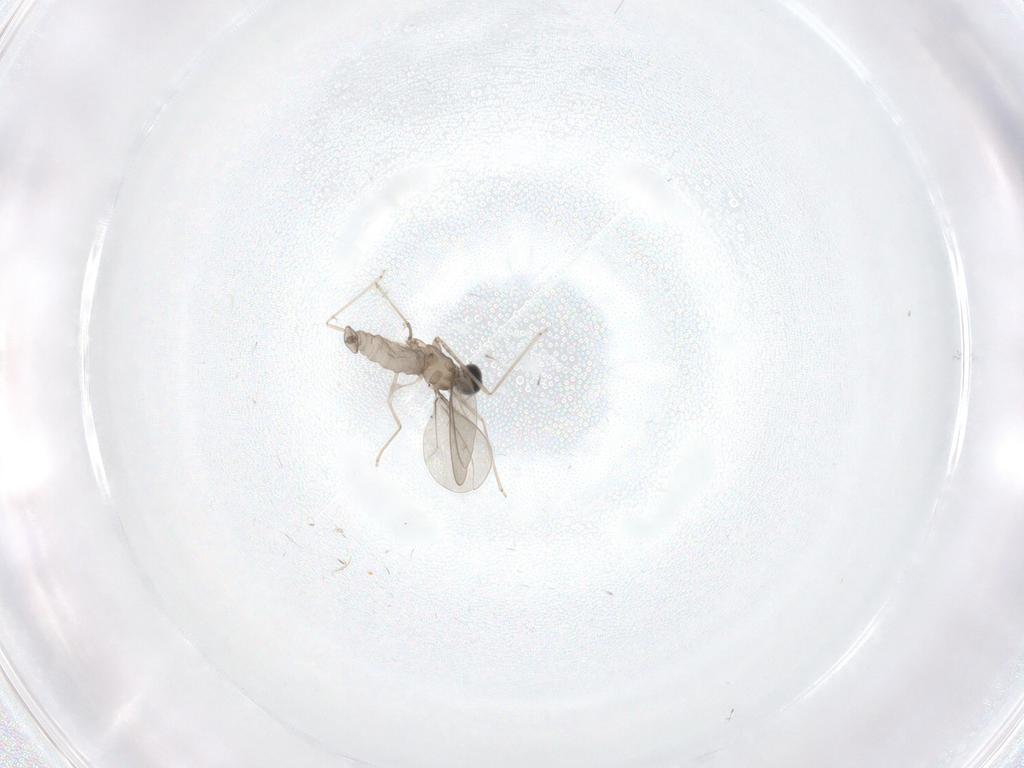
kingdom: Animalia
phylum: Arthropoda
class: Insecta
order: Diptera
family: Cecidomyiidae
